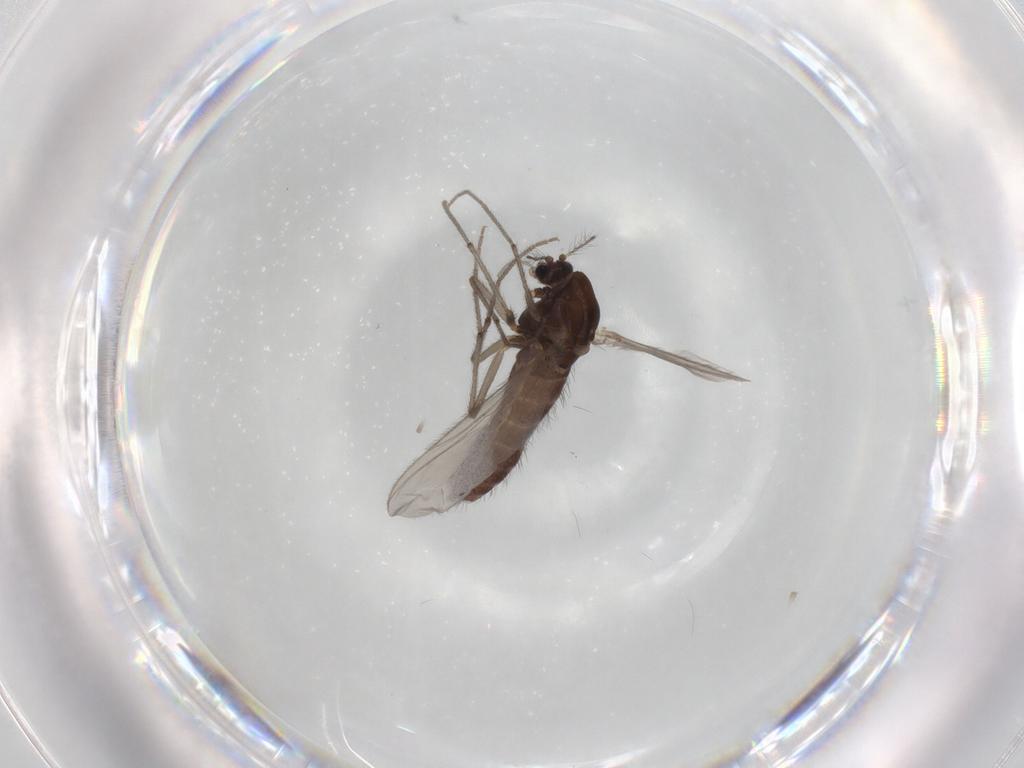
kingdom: Animalia
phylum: Arthropoda
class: Insecta
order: Diptera
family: Chironomidae
